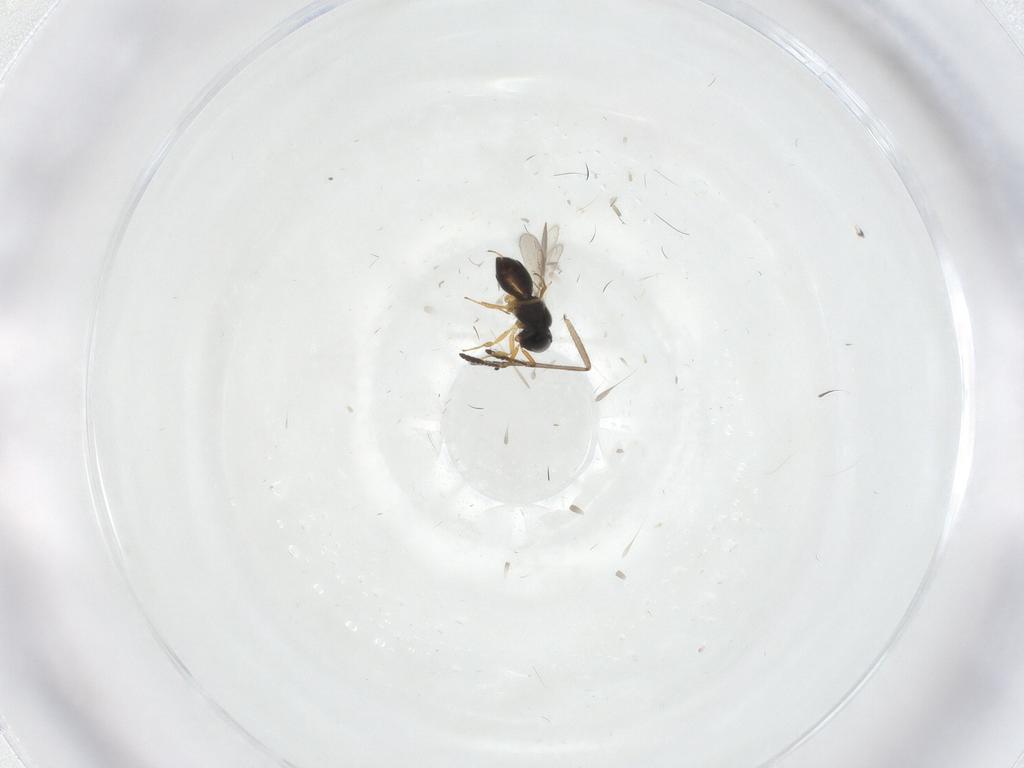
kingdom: Animalia
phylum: Arthropoda
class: Insecta
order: Hymenoptera
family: Scelionidae
